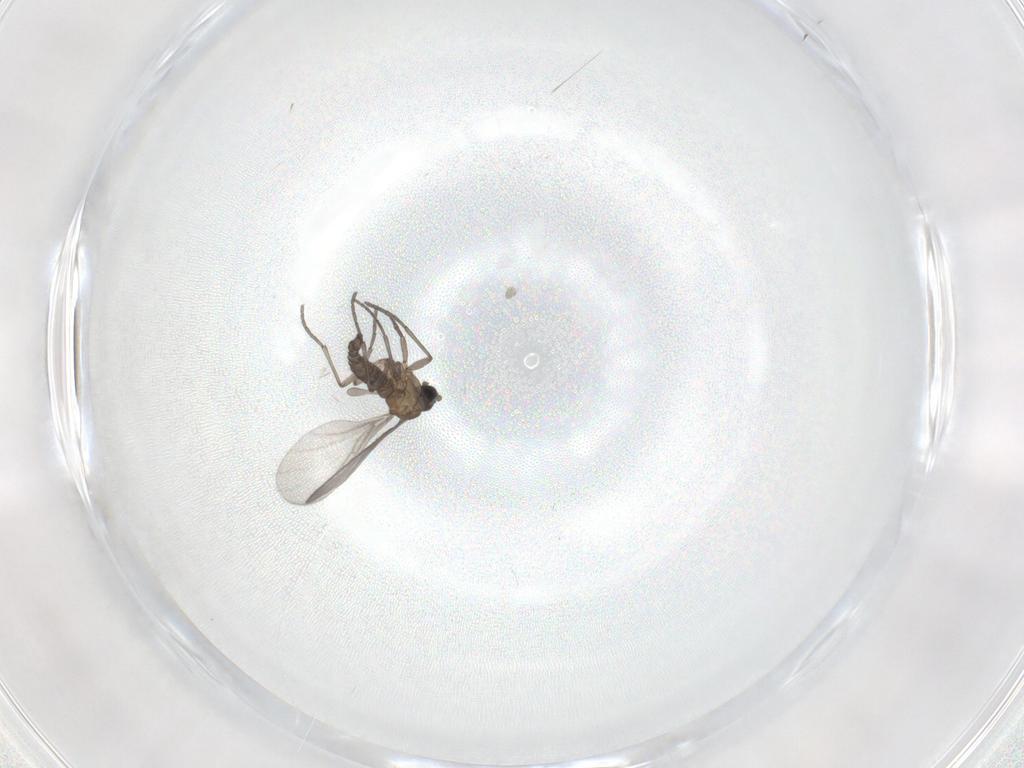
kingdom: Animalia
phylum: Arthropoda
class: Insecta
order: Diptera
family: Sciaridae
